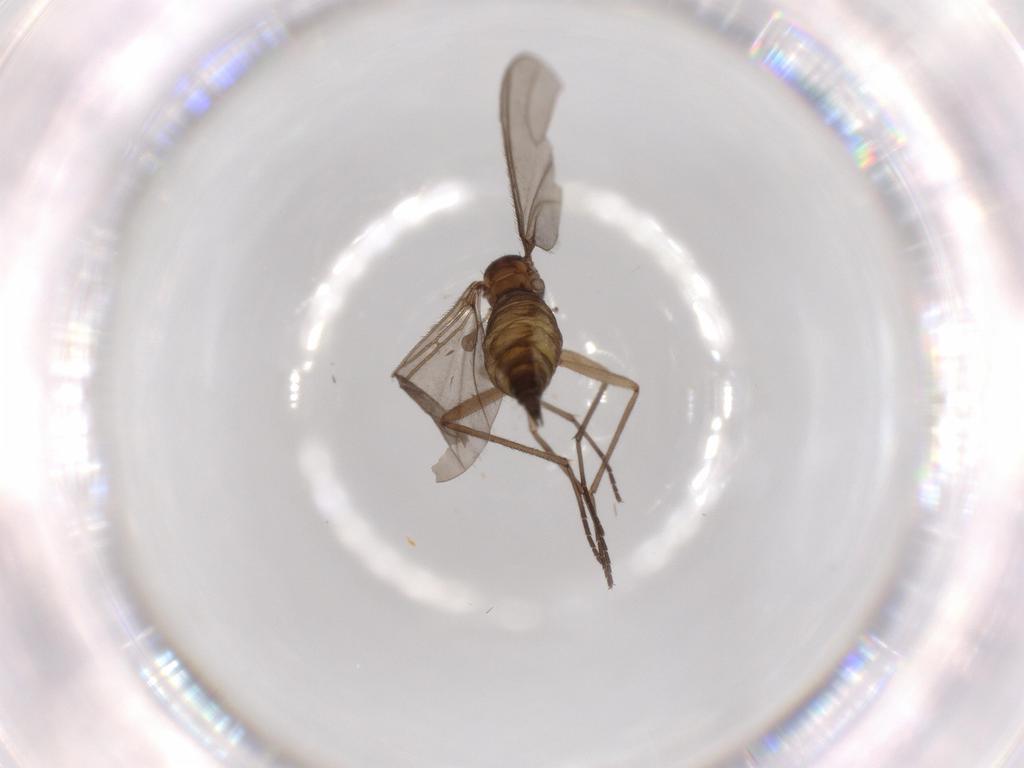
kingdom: Animalia
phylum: Arthropoda
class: Insecta
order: Diptera
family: Sciaridae
